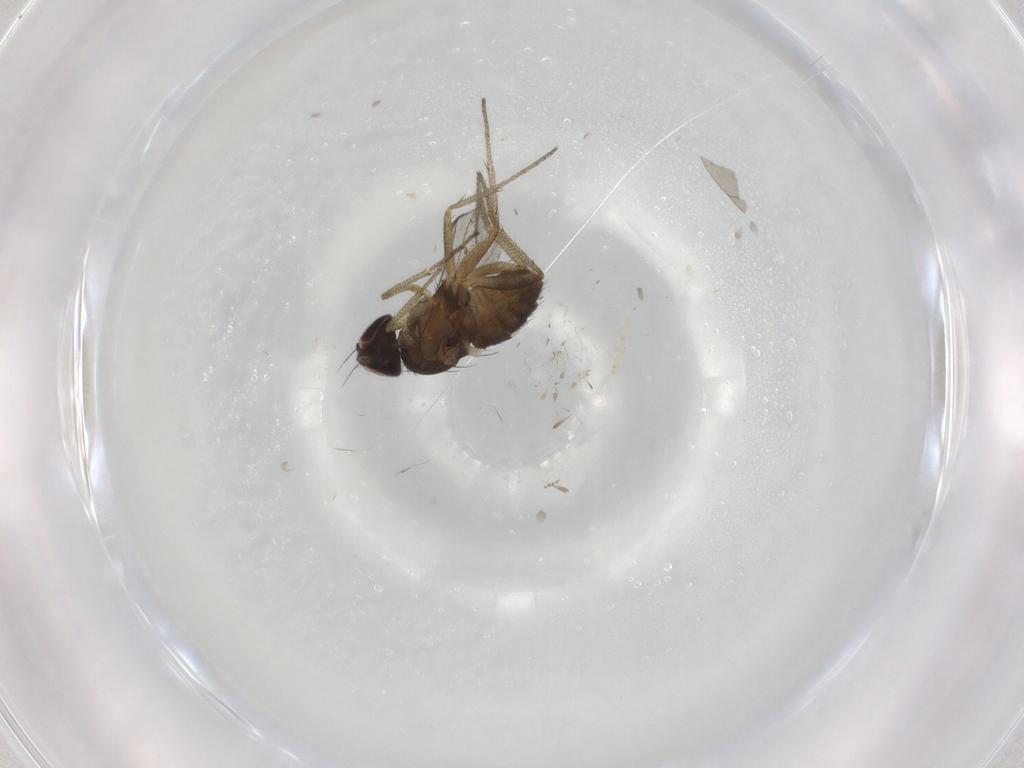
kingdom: Animalia
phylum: Arthropoda
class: Insecta
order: Diptera
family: Dolichopodidae
